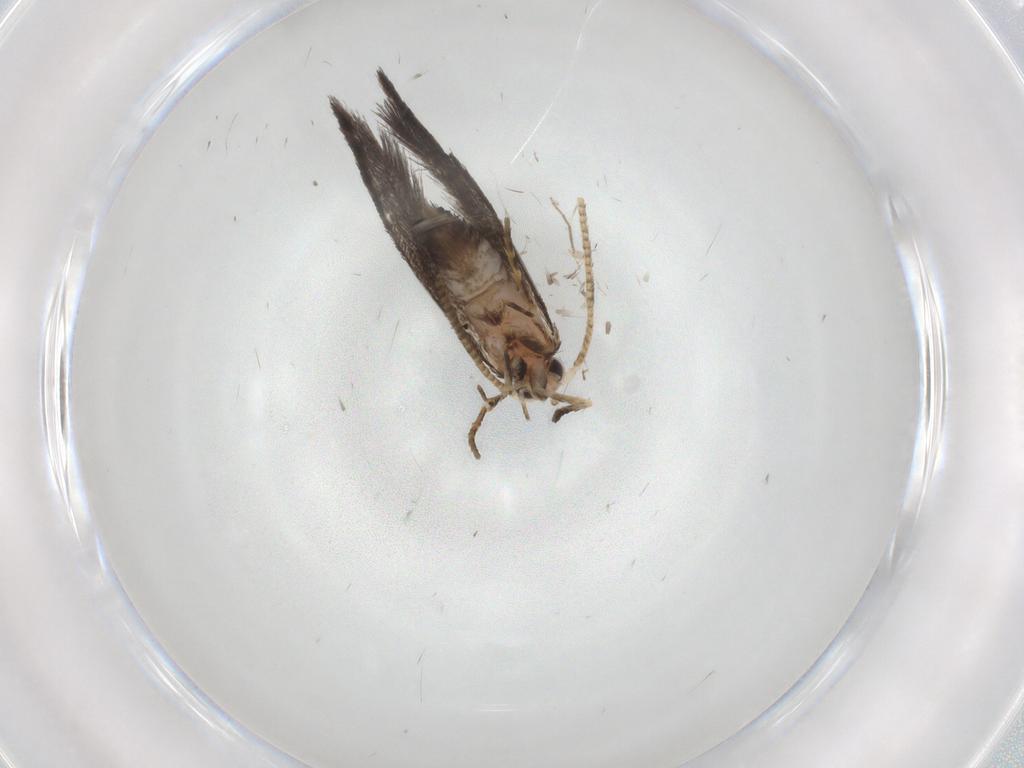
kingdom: Animalia
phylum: Arthropoda
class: Insecta
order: Lepidoptera
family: Tineidae
